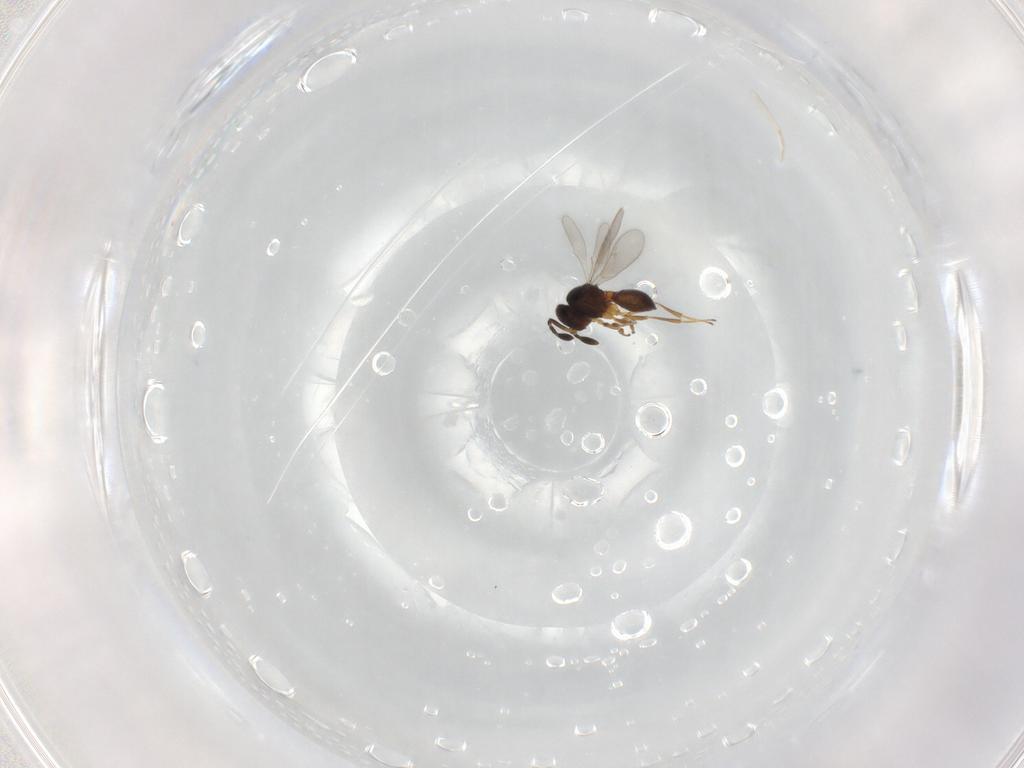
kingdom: Animalia
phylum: Arthropoda
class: Insecta
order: Hymenoptera
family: Scelionidae
